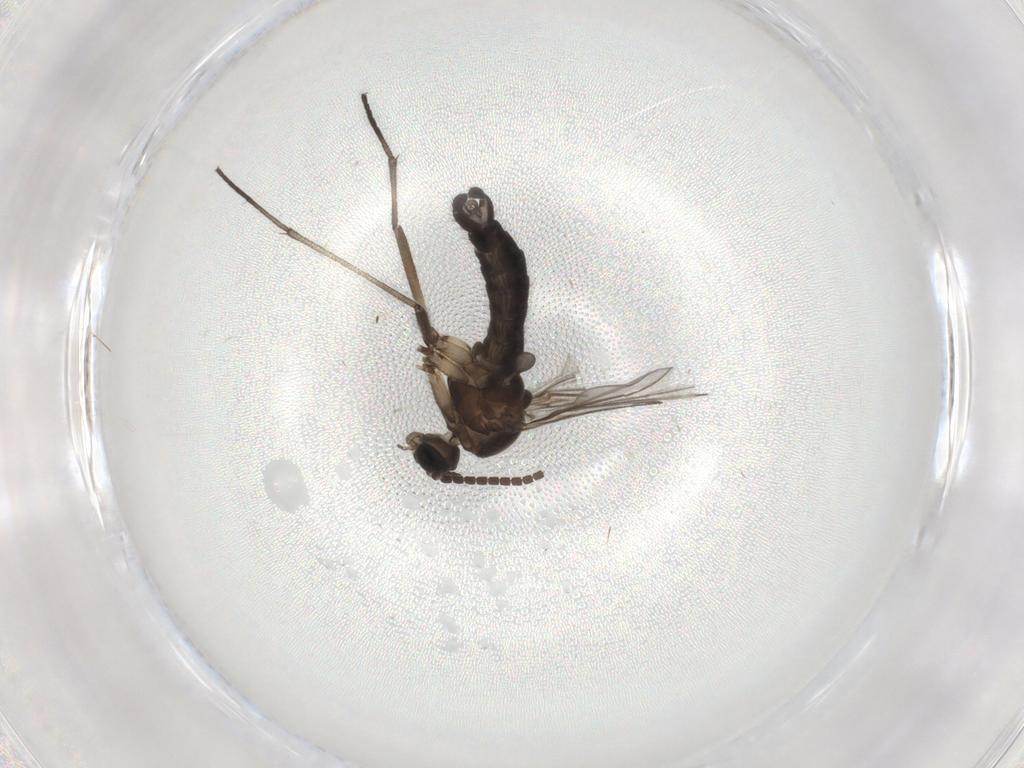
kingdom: Animalia
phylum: Arthropoda
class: Insecta
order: Diptera
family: Sciaridae
